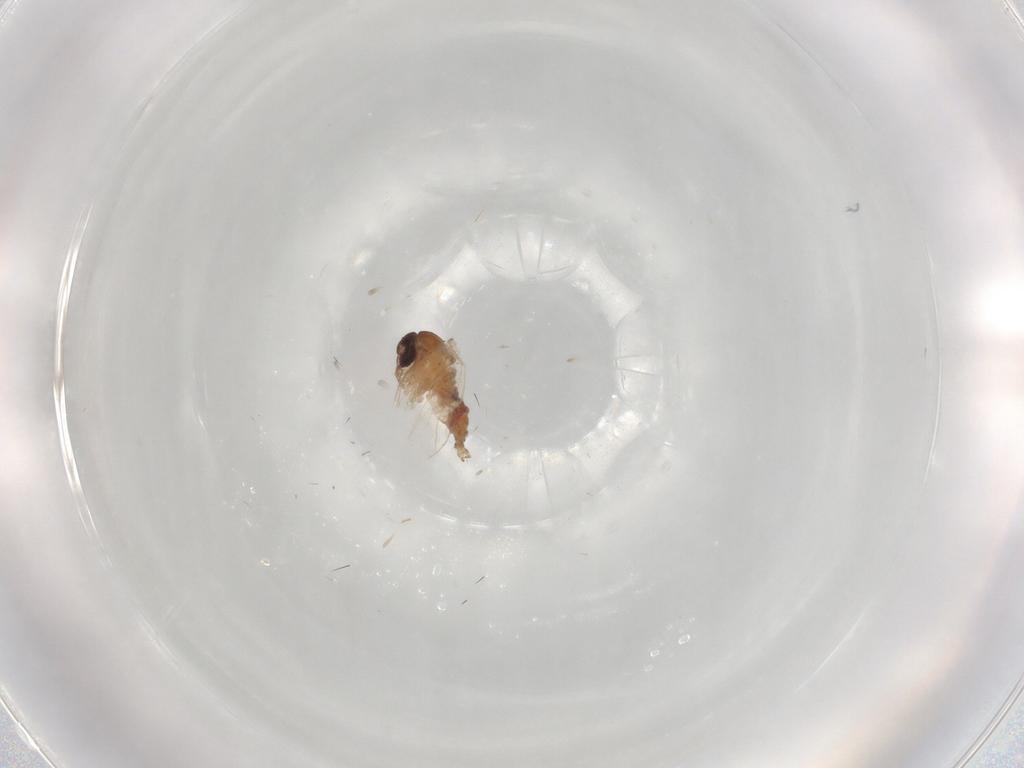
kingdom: Animalia
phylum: Arthropoda
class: Insecta
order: Diptera
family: Psychodidae
